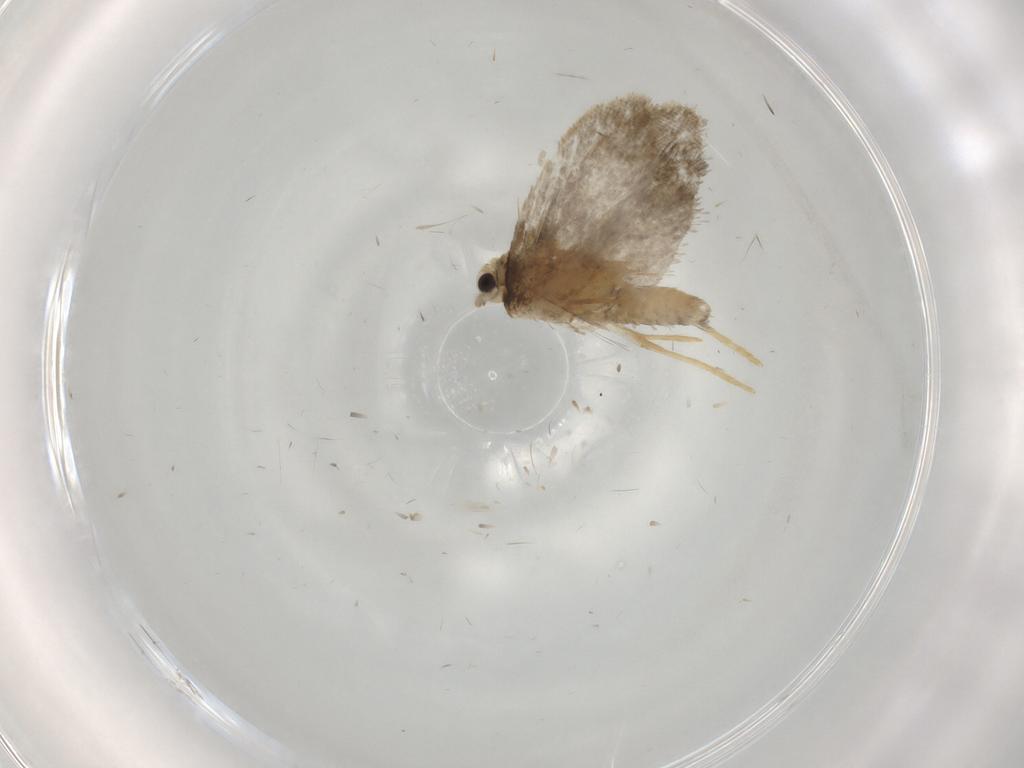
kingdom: Animalia
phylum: Arthropoda
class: Insecta
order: Lepidoptera
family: Psychidae
